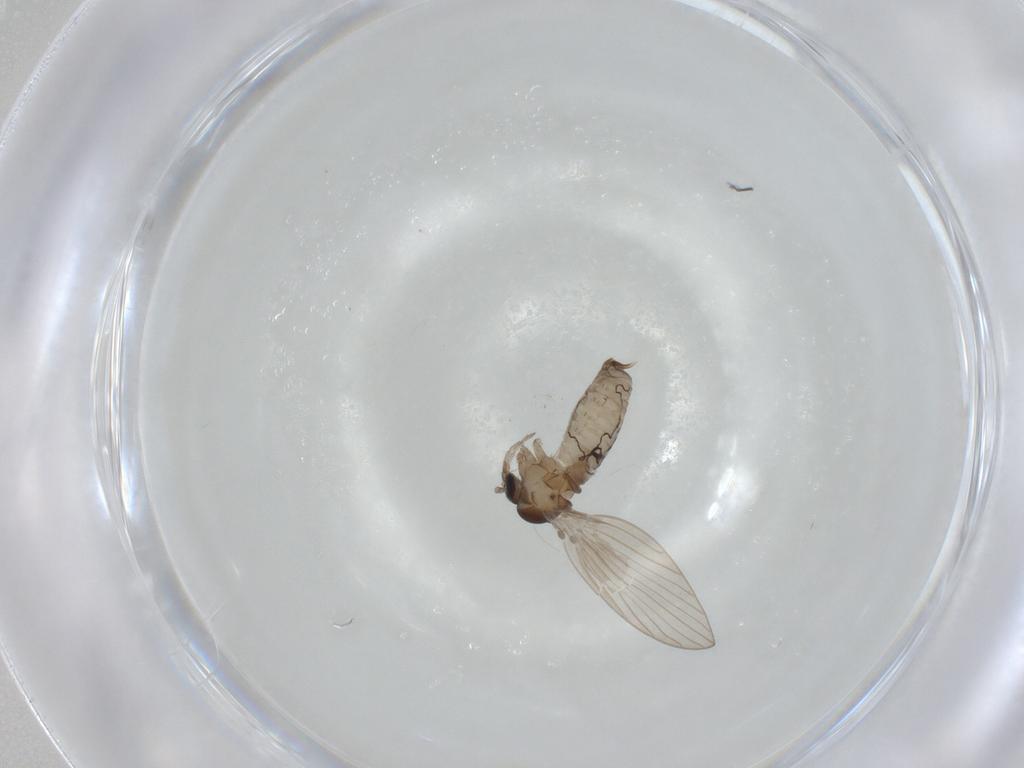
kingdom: Animalia
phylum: Arthropoda
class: Insecta
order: Diptera
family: Psychodidae
